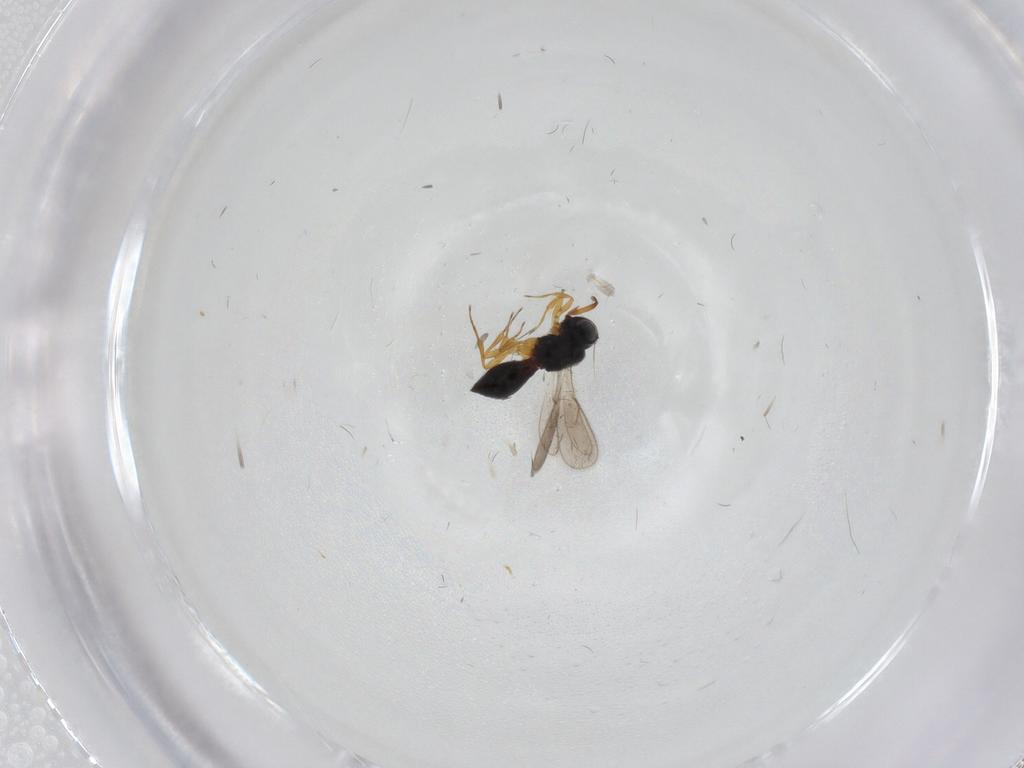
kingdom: Animalia
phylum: Arthropoda
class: Insecta
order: Hymenoptera
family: Scelionidae
